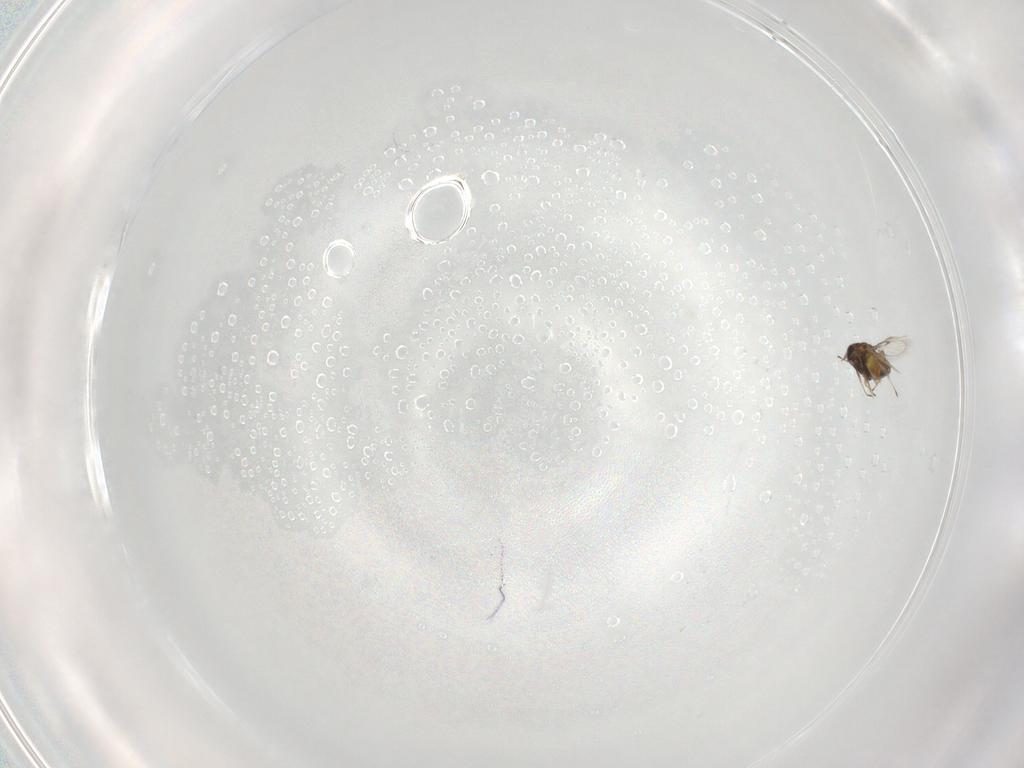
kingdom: Animalia
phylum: Arthropoda
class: Insecta
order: Hymenoptera
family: Trichogrammatidae
